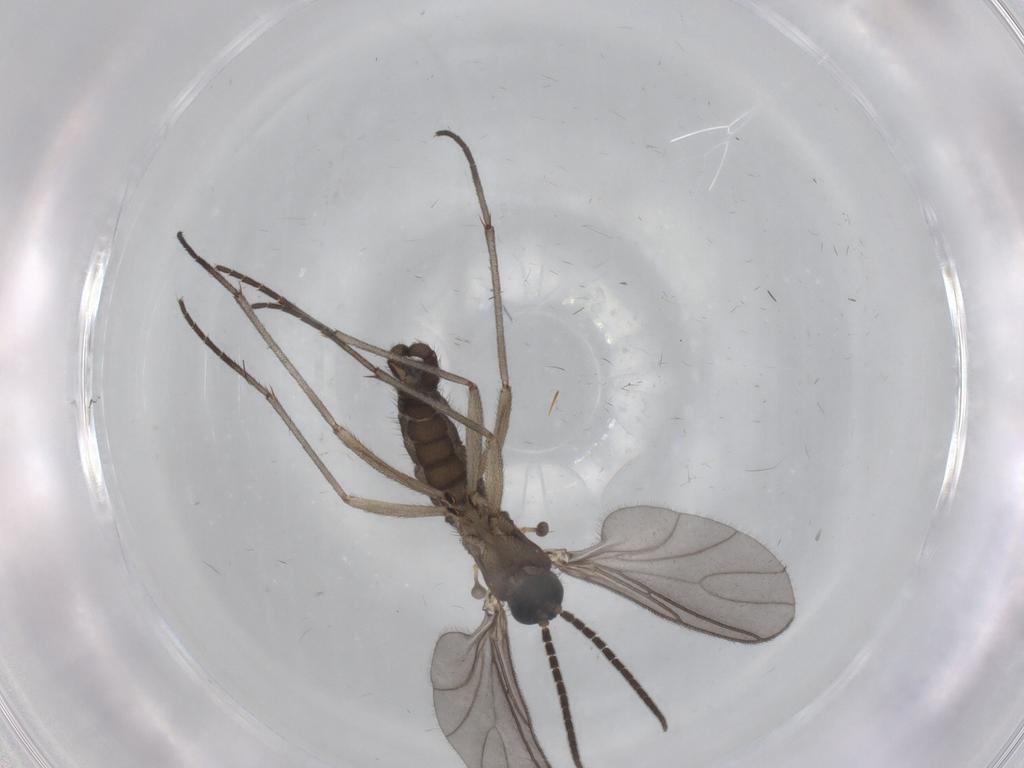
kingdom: Animalia
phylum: Arthropoda
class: Insecta
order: Diptera
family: Sciaridae
